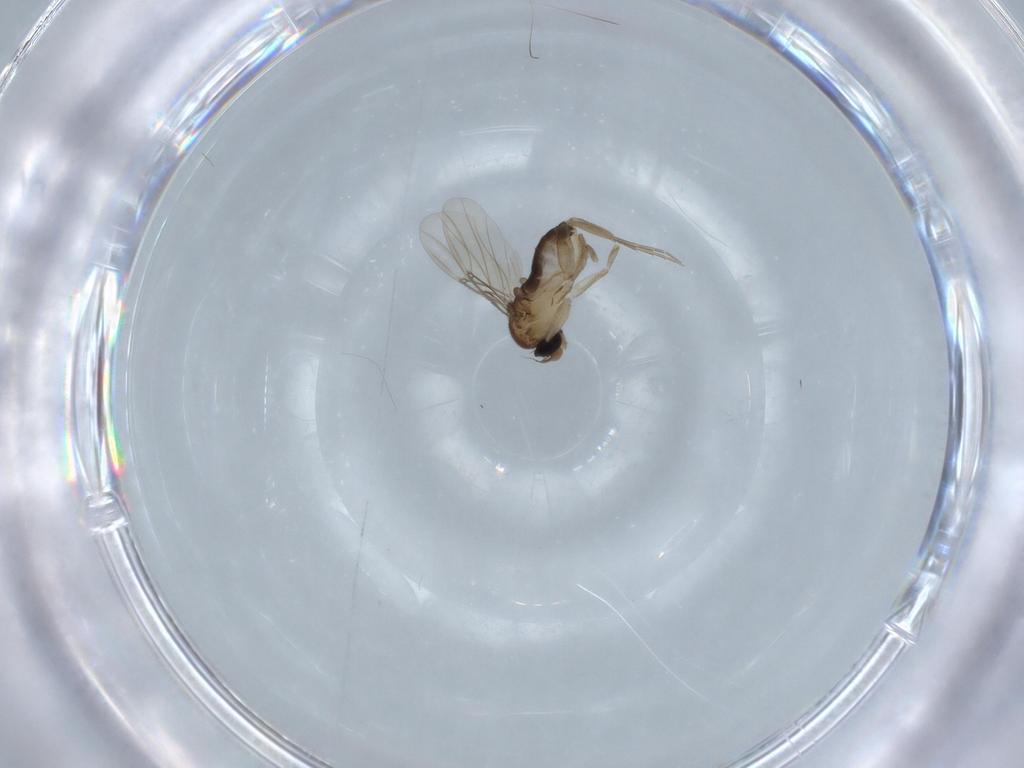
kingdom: Animalia
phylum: Arthropoda
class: Insecta
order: Diptera
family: Phoridae
